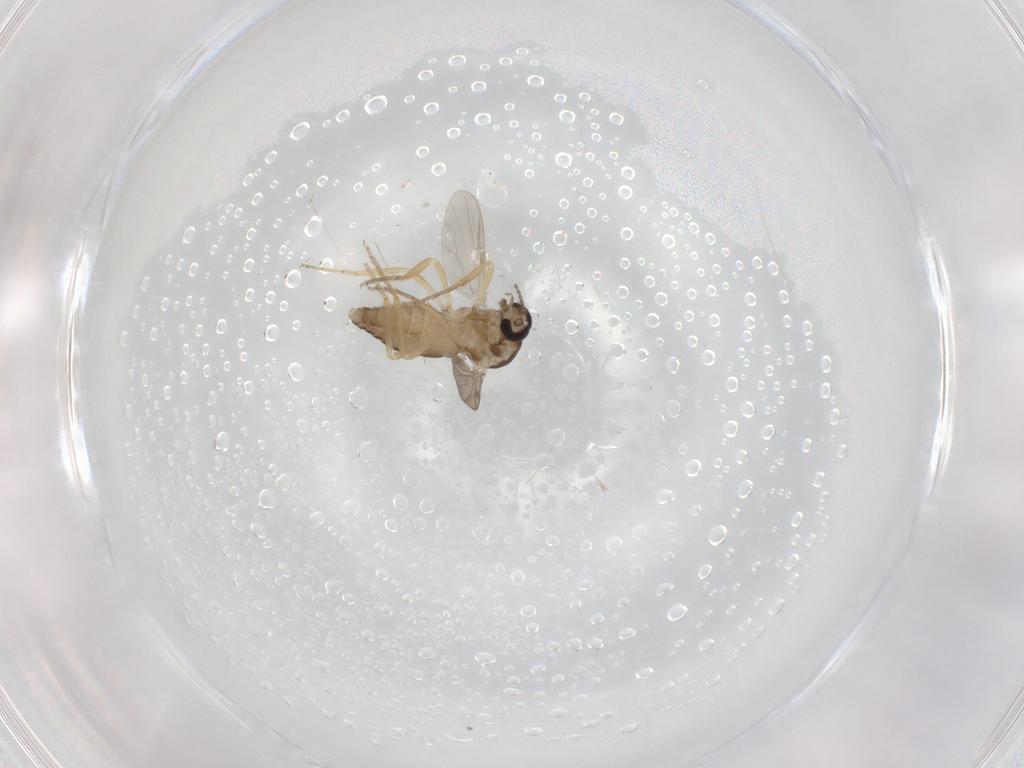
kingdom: Animalia
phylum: Arthropoda
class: Insecta
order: Diptera
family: Ceratopogonidae
